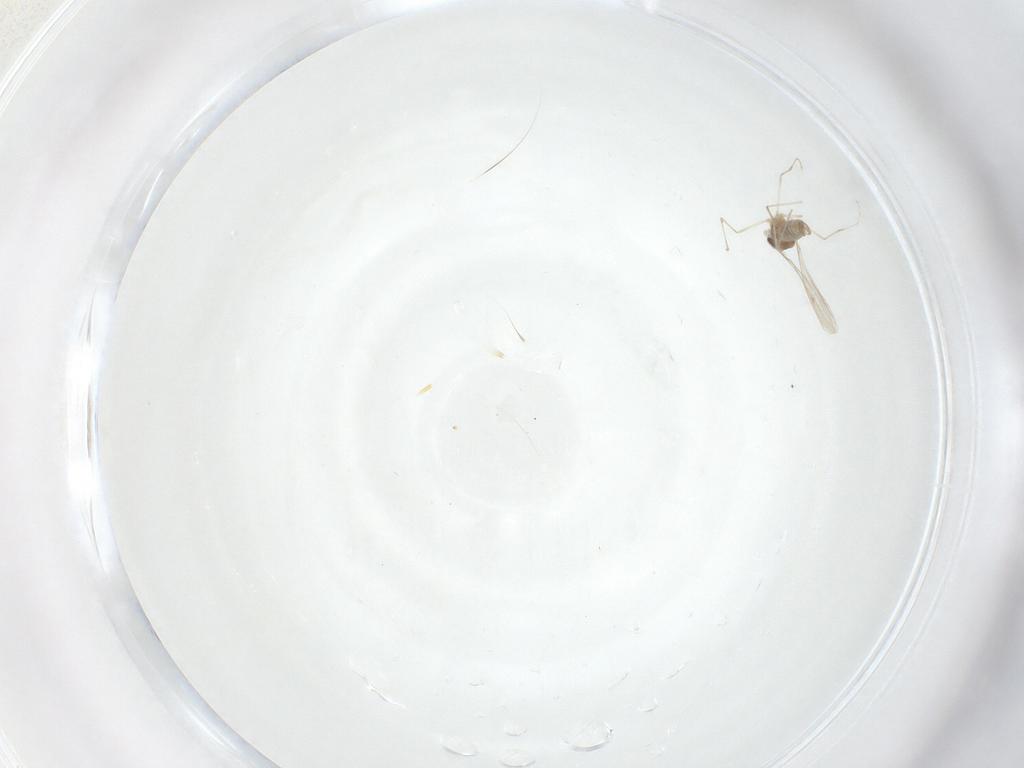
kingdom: Animalia
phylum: Arthropoda
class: Insecta
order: Diptera
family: Cecidomyiidae
